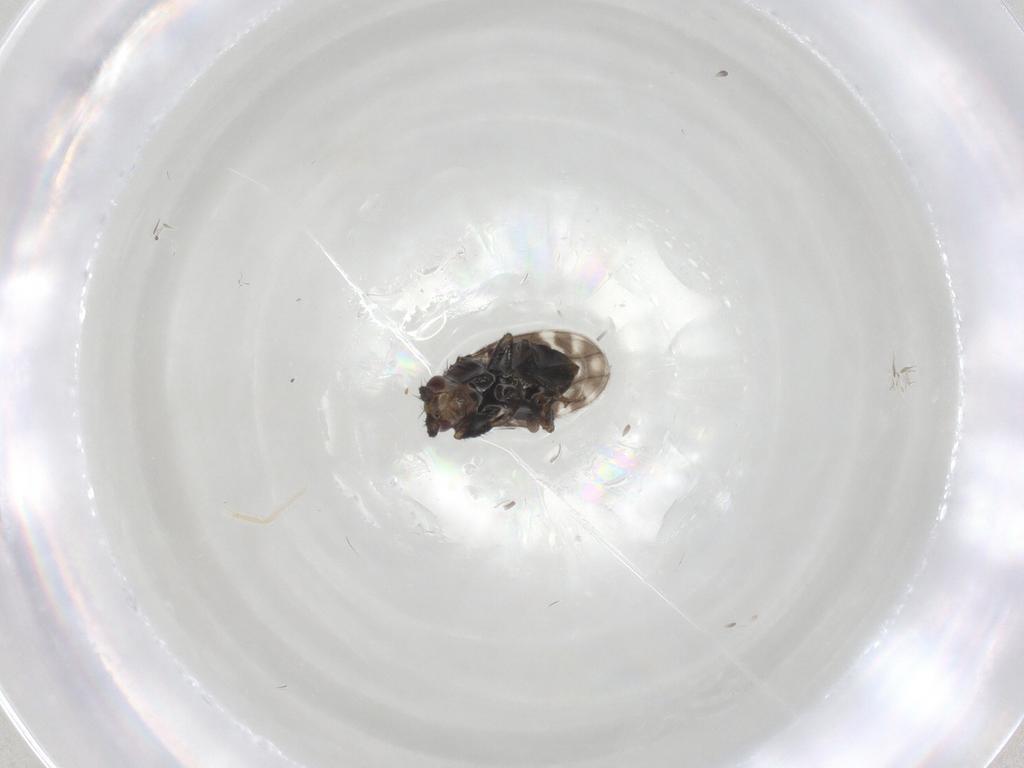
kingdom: Animalia
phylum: Arthropoda
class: Insecta
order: Diptera
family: Sphaeroceridae
